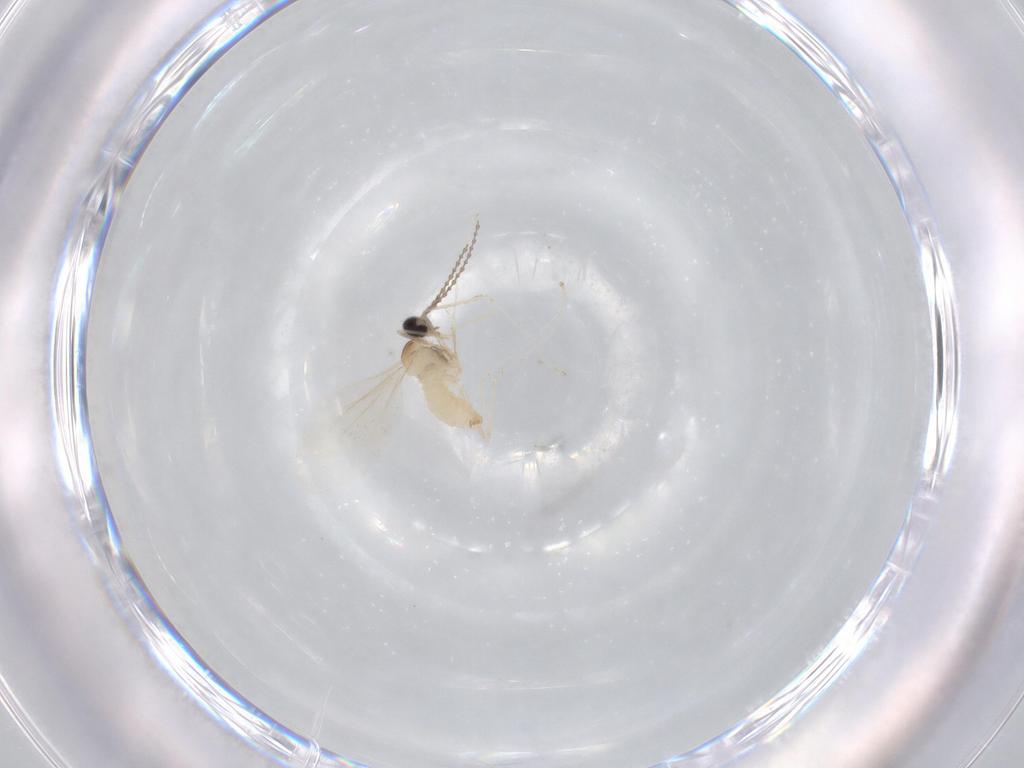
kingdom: Animalia
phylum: Arthropoda
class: Insecta
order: Diptera
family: Cecidomyiidae
